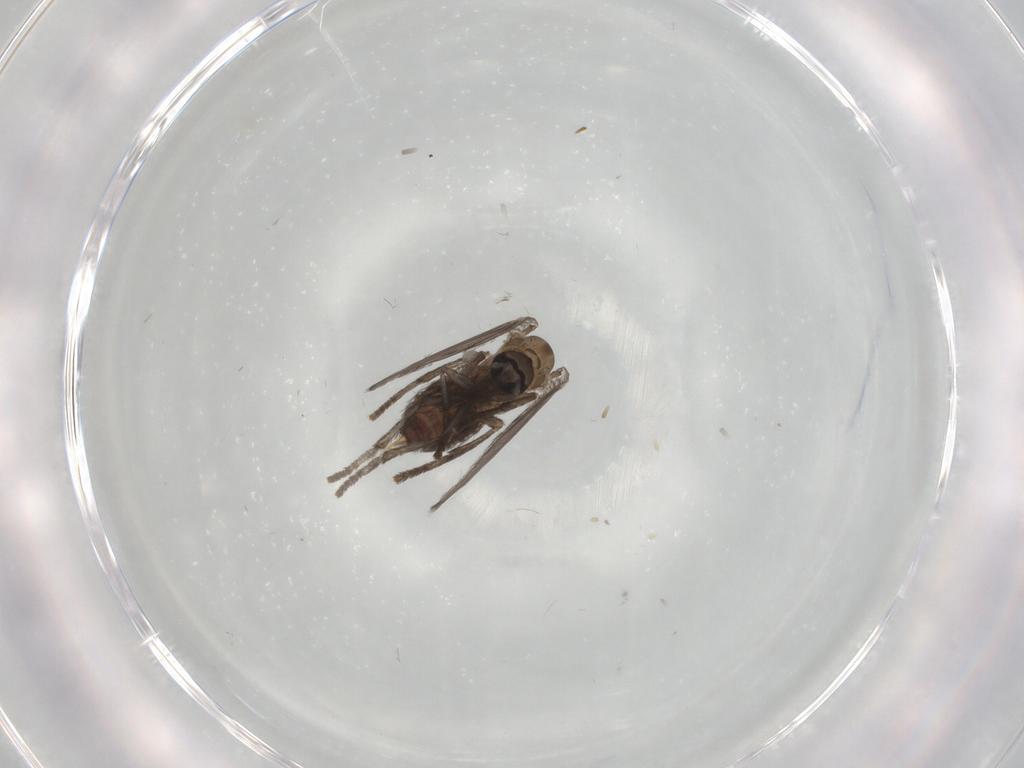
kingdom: Animalia
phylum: Arthropoda
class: Insecta
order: Diptera
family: Psychodidae
